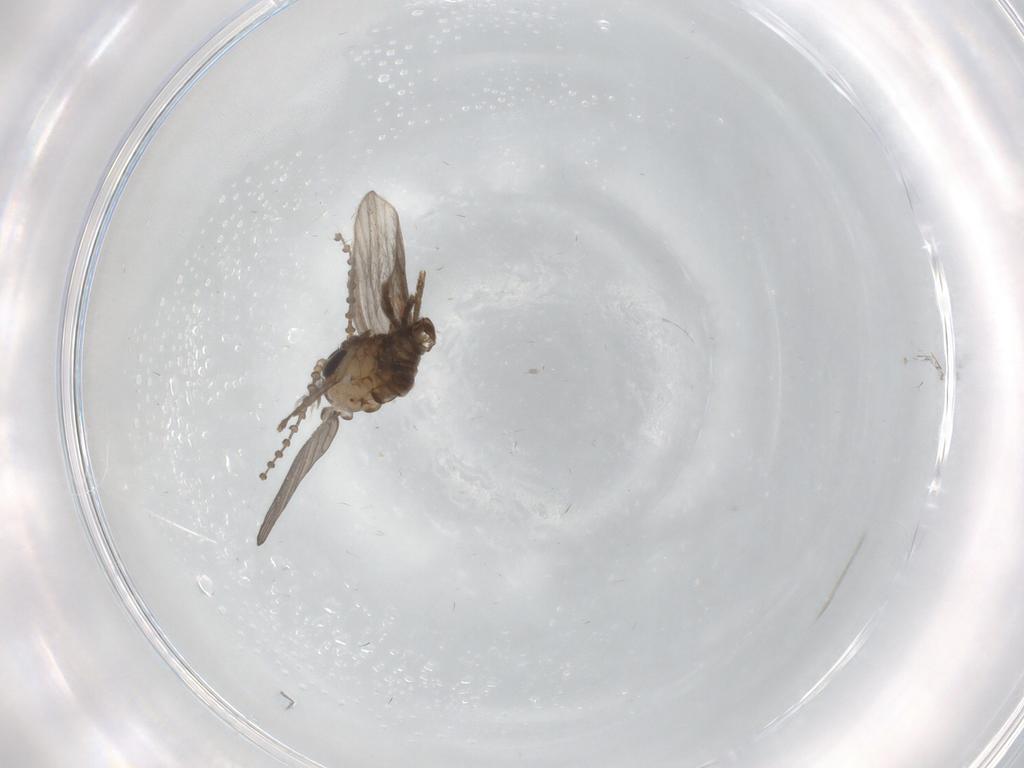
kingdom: Animalia
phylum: Arthropoda
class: Insecta
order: Diptera
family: Psychodidae
